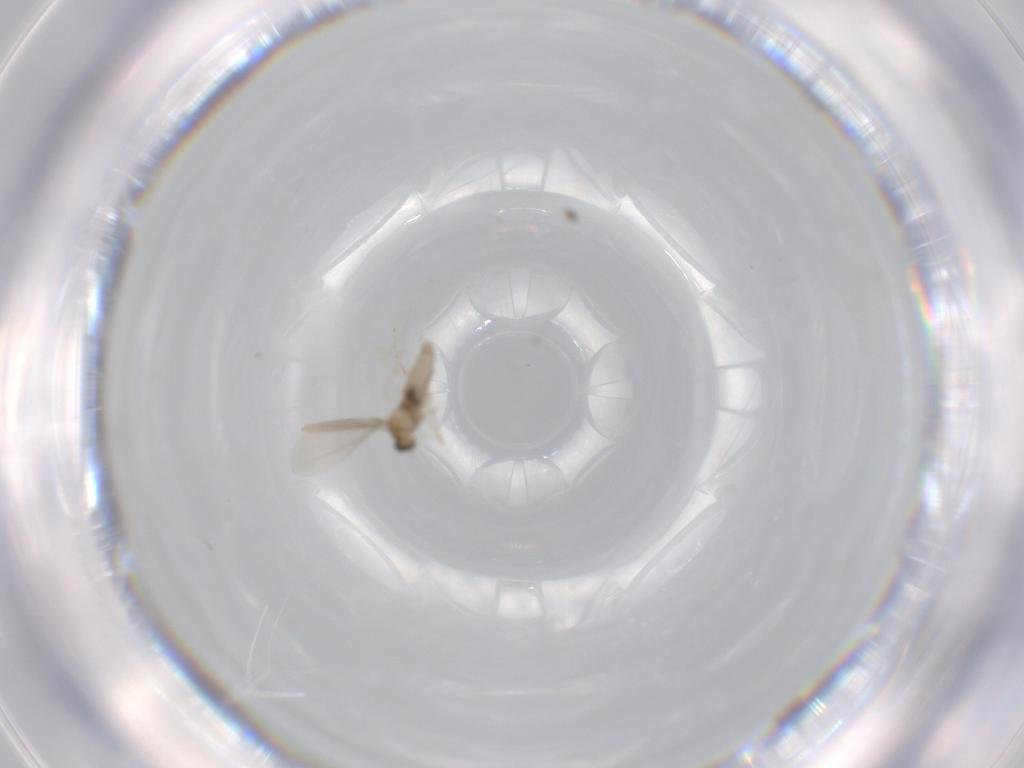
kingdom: Animalia
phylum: Arthropoda
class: Insecta
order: Diptera
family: Cecidomyiidae
